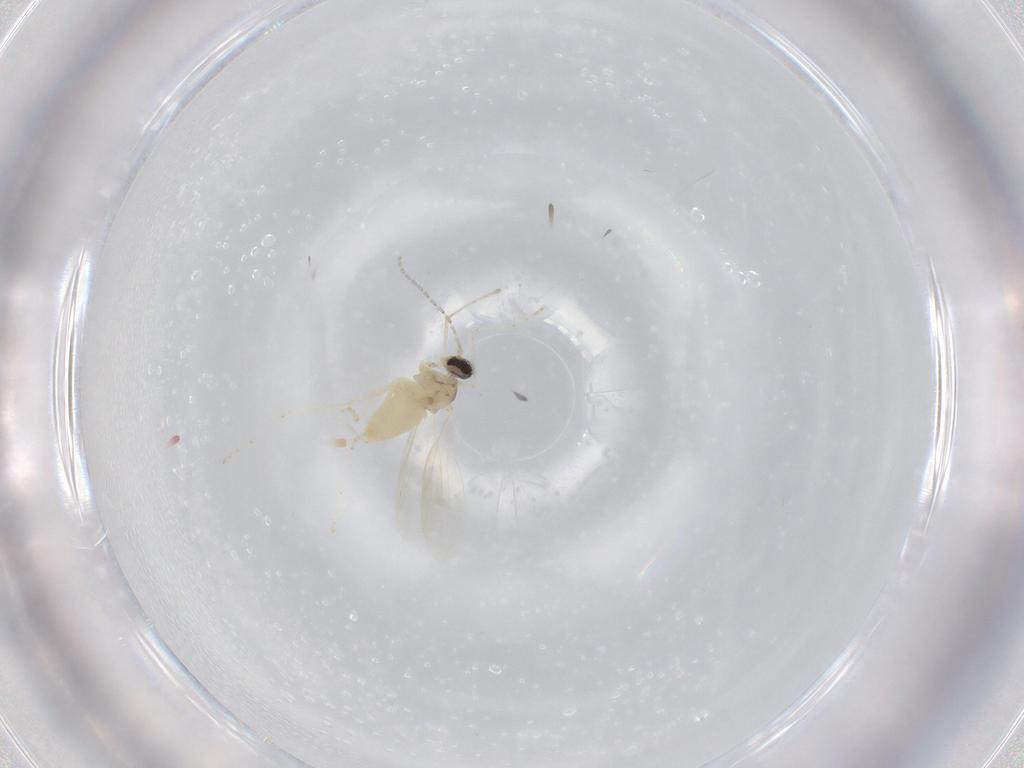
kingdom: Animalia
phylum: Arthropoda
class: Insecta
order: Diptera
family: Cecidomyiidae
